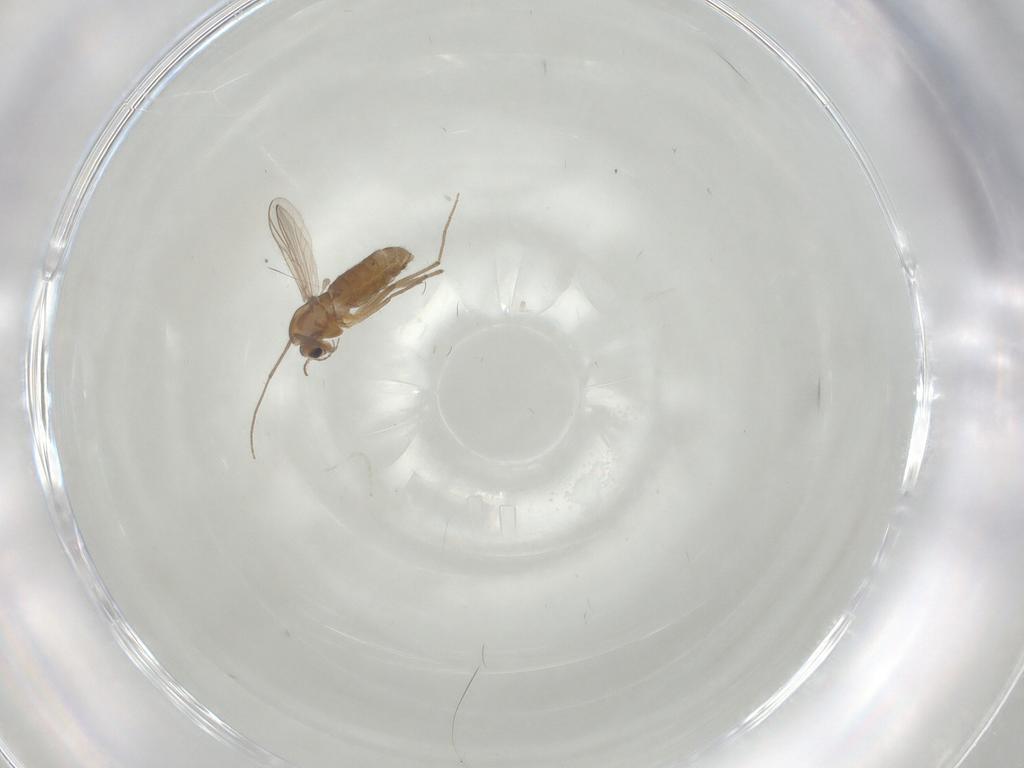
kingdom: Animalia
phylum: Arthropoda
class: Insecta
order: Diptera
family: Chironomidae
